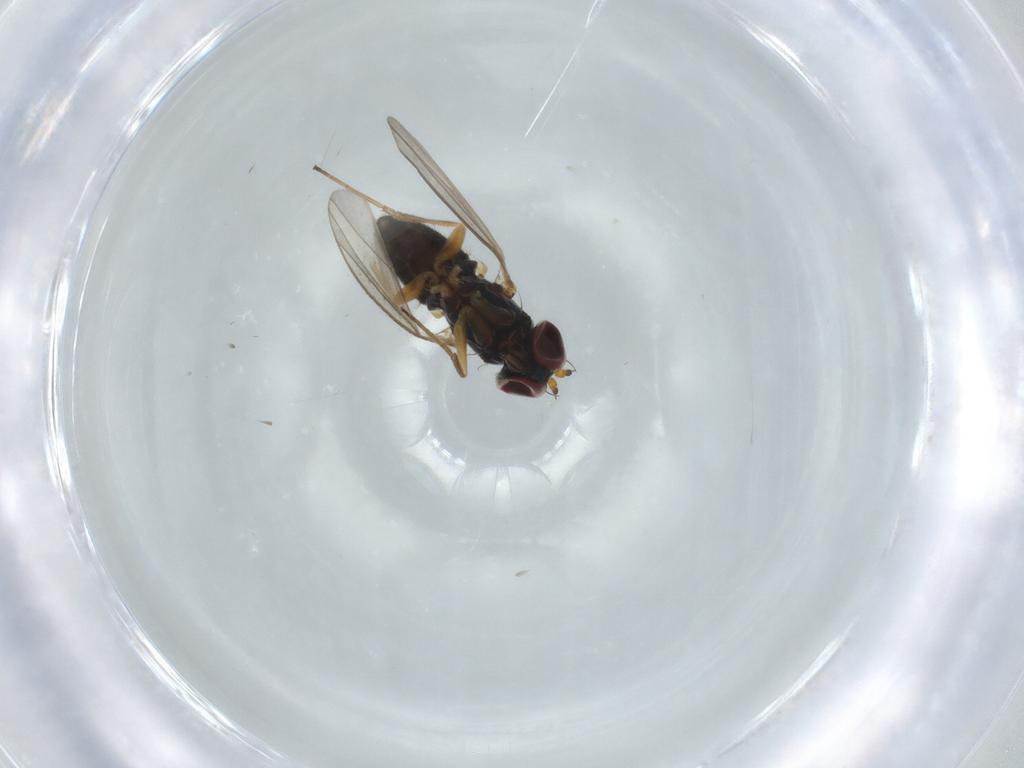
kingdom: Animalia
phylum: Arthropoda
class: Insecta
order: Diptera
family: Dolichopodidae
